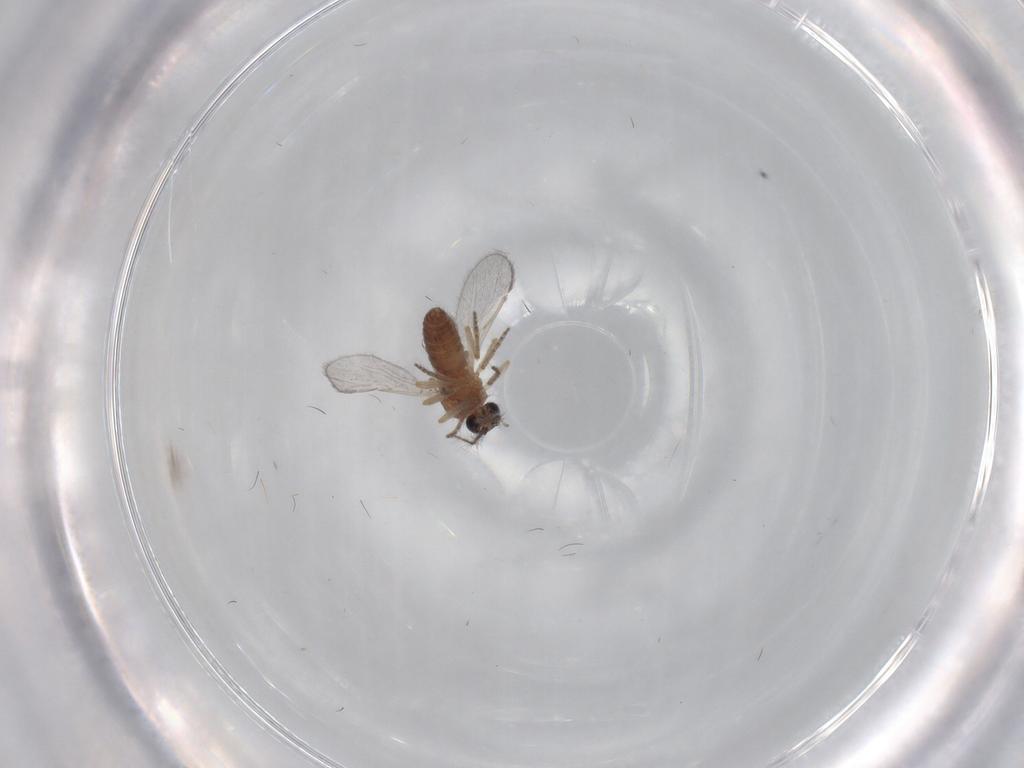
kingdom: Animalia
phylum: Arthropoda
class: Insecta
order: Diptera
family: Ceratopogonidae
